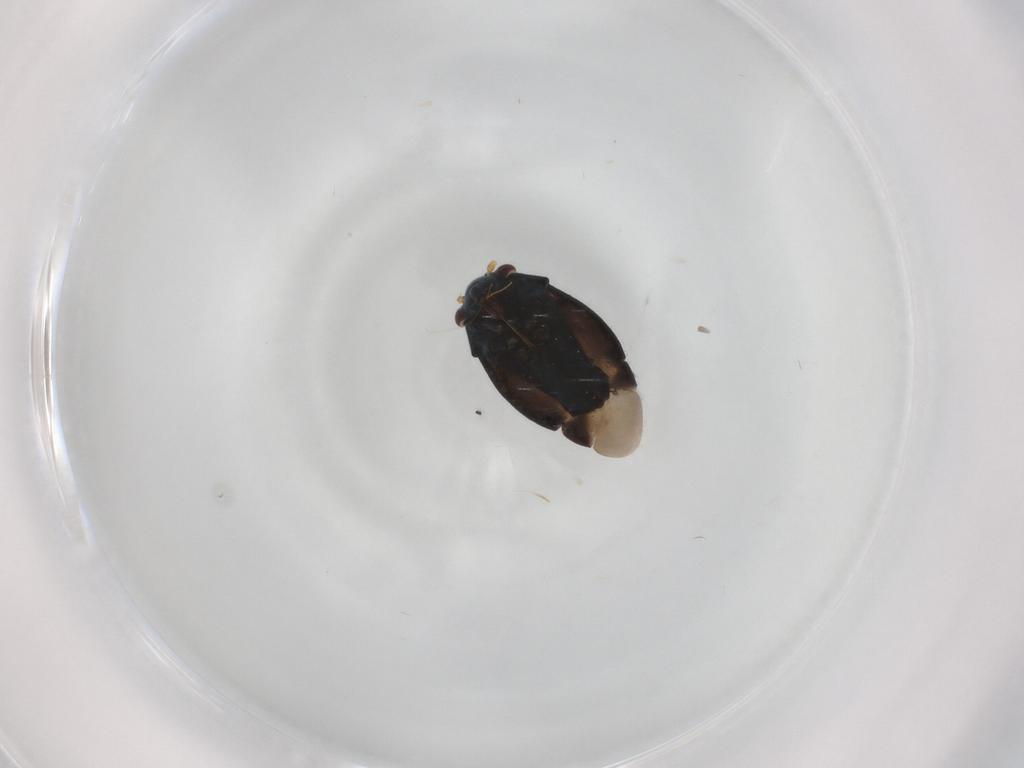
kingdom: Animalia
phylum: Arthropoda
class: Insecta
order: Hemiptera
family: Miridae
